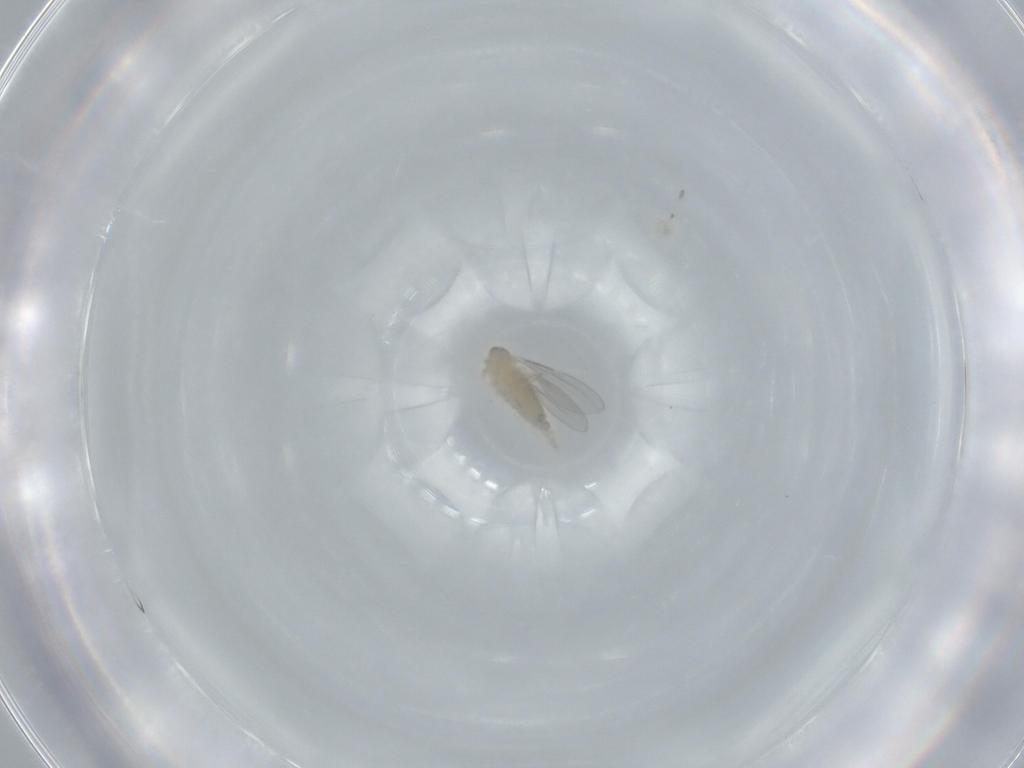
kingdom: Animalia
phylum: Arthropoda
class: Insecta
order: Diptera
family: Cecidomyiidae
